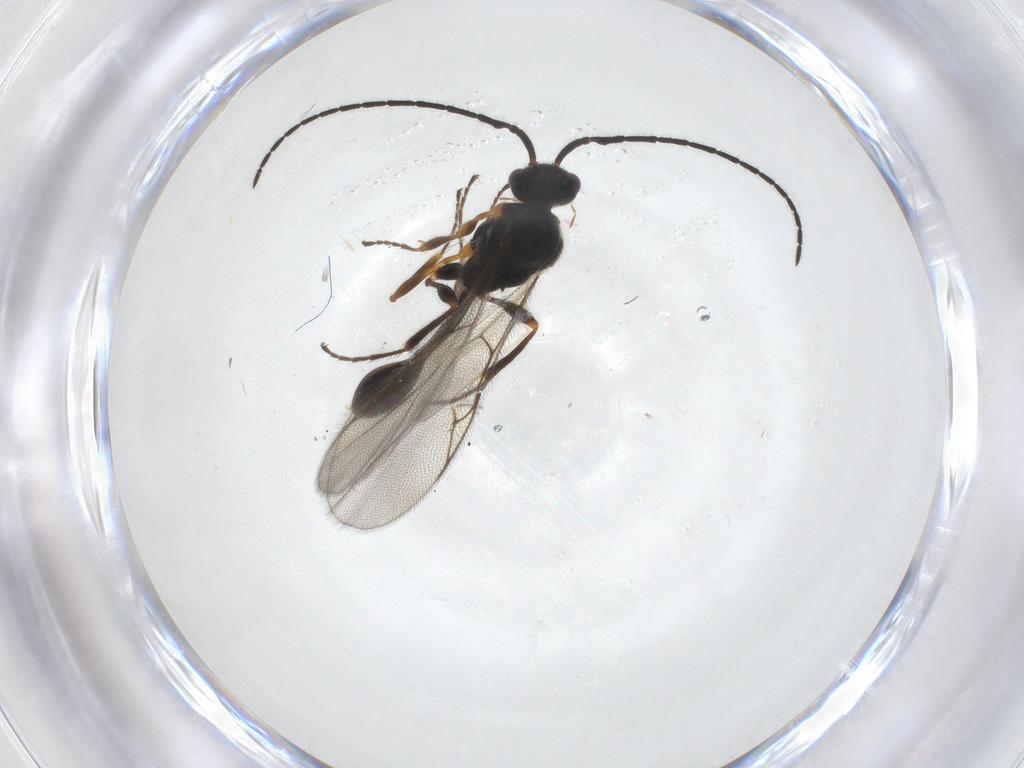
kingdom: Animalia
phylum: Arthropoda
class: Insecta
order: Hymenoptera
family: Diapriidae
